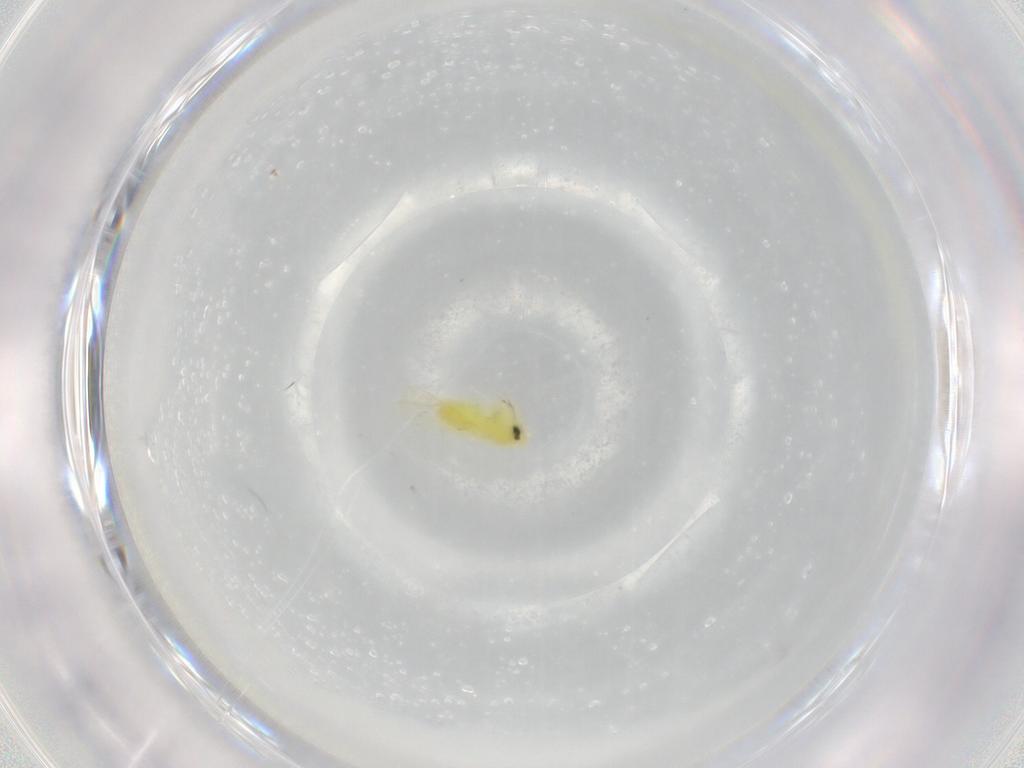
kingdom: Animalia
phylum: Arthropoda
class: Insecta
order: Hemiptera
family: Aleyrodidae
